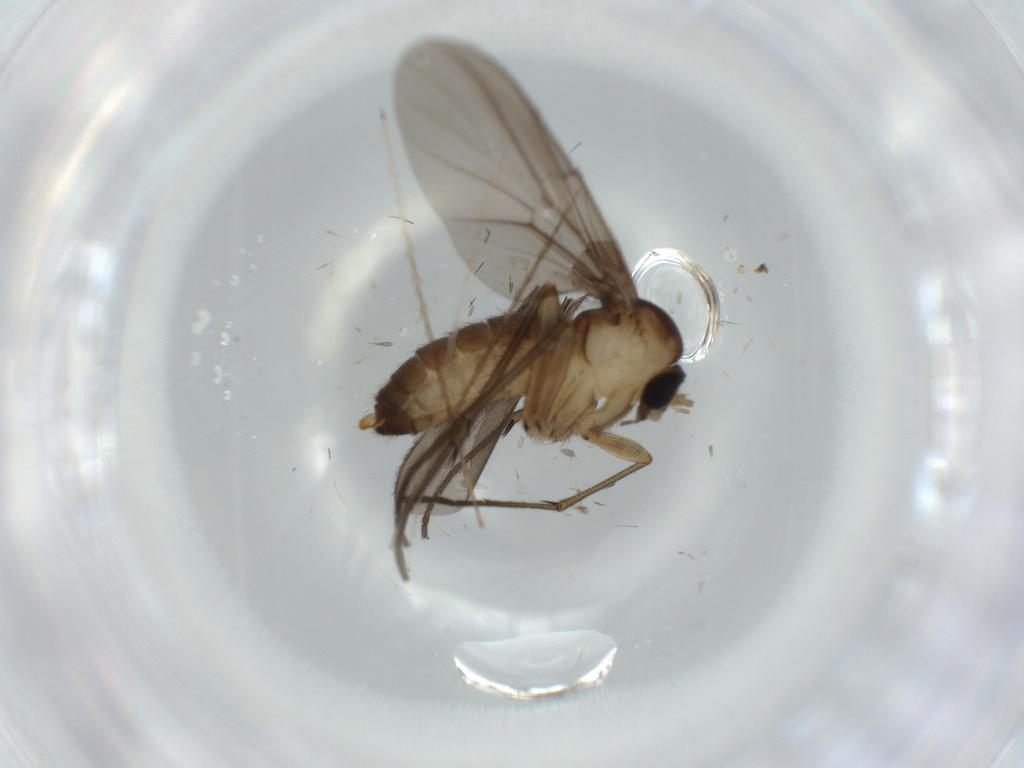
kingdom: Animalia
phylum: Arthropoda
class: Insecta
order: Diptera
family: Diadocidiidae
